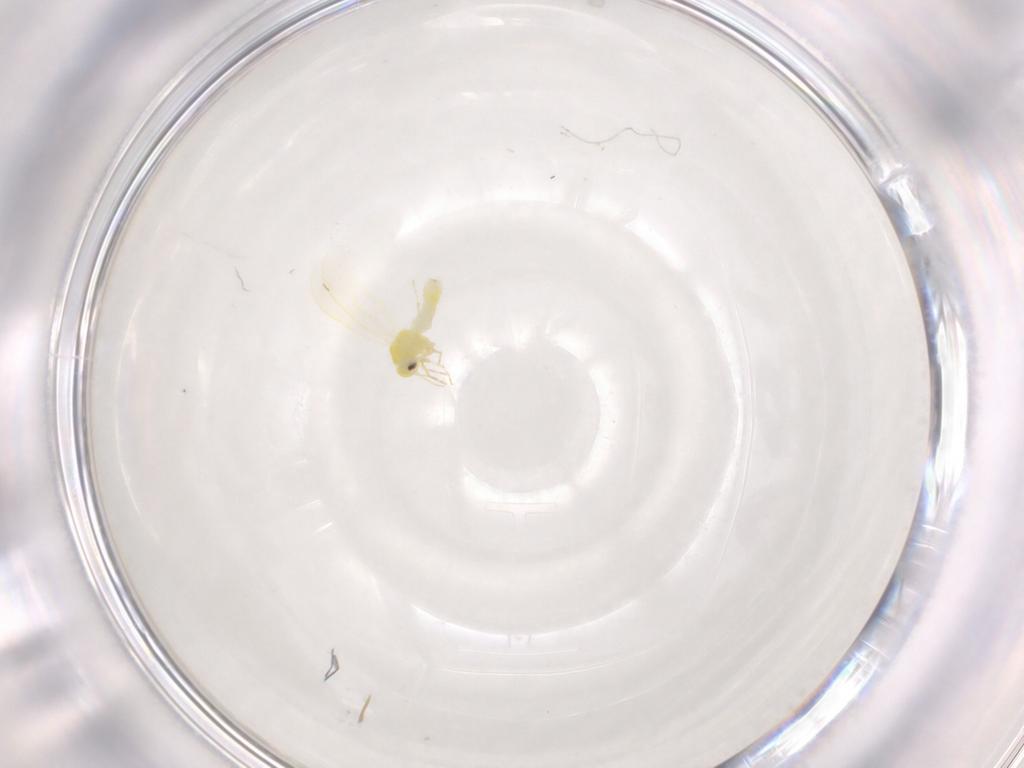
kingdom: Animalia
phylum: Arthropoda
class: Insecta
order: Hemiptera
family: Aleyrodidae
